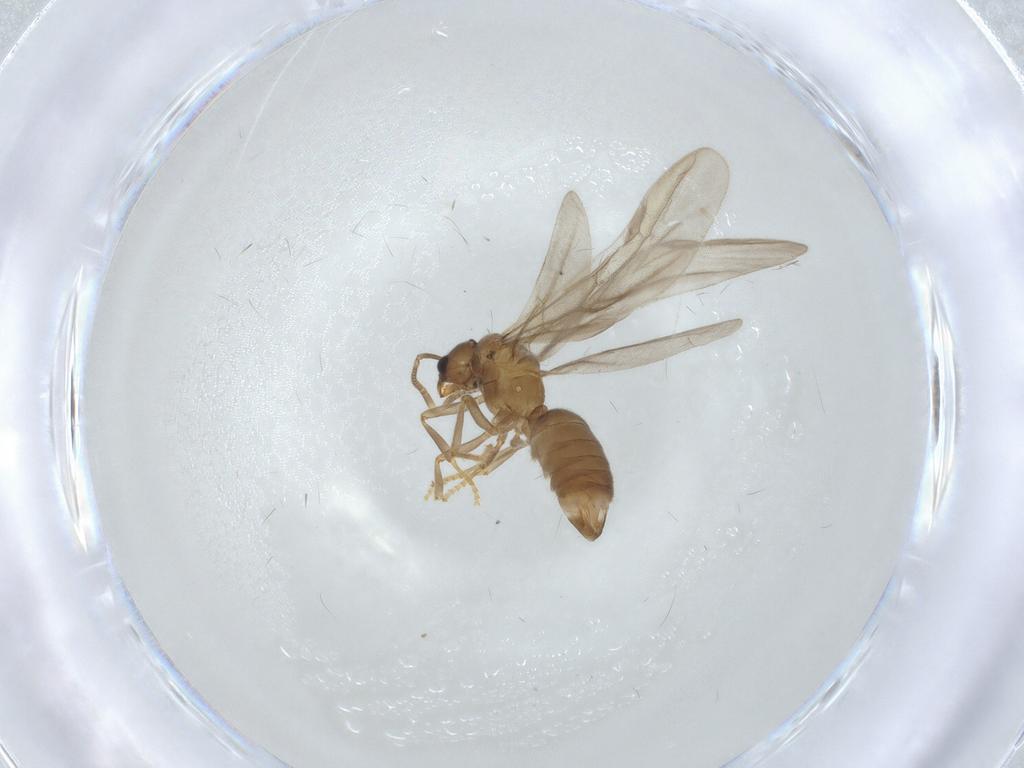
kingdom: Animalia
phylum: Arthropoda
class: Insecta
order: Hymenoptera
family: Formicidae
